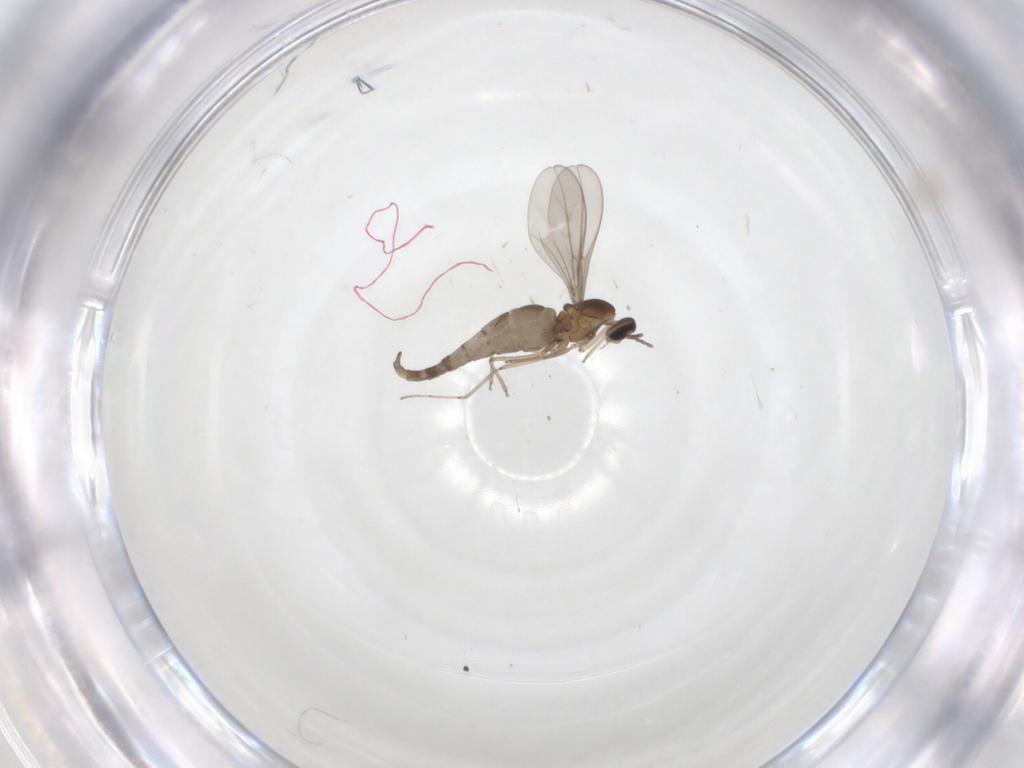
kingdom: Animalia
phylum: Arthropoda
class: Insecta
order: Diptera
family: Cecidomyiidae
